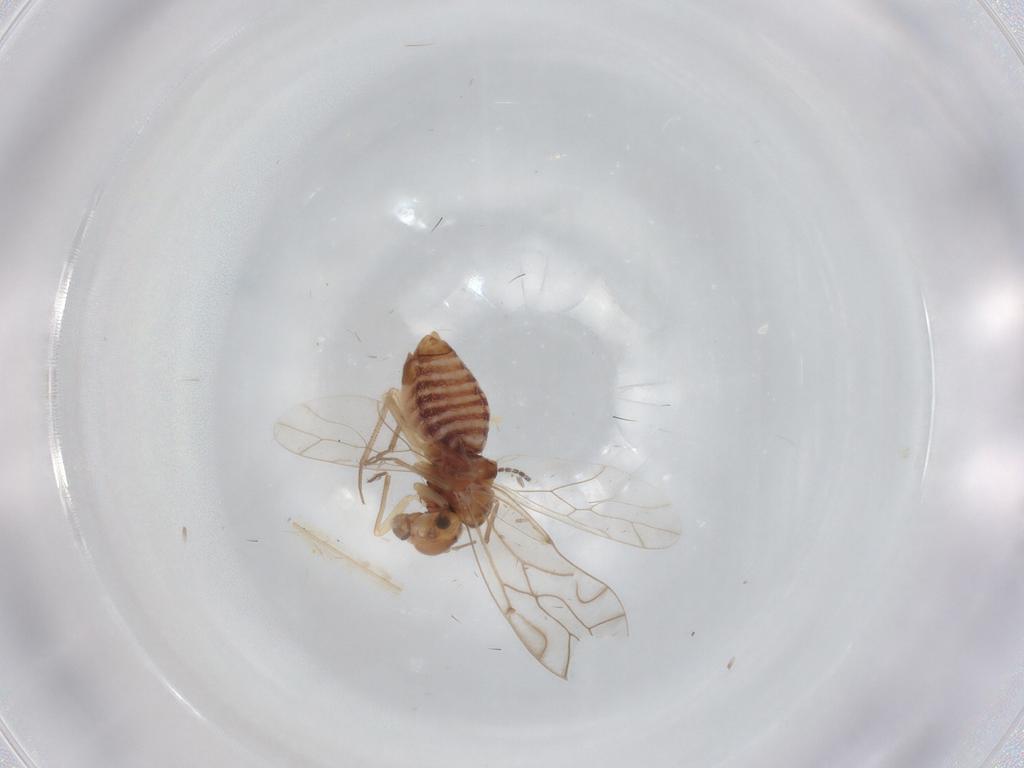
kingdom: Animalia
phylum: Arthropoda
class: Insecta
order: Psocodea
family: Lachesillidae
